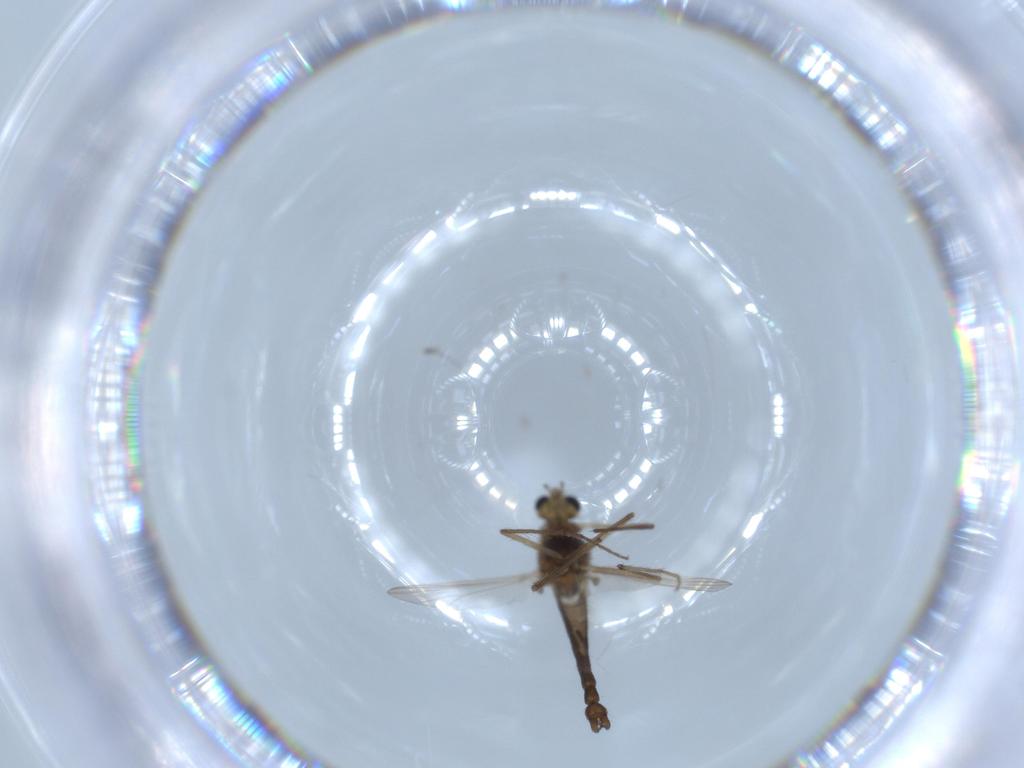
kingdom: Animalia
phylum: Arthropoda
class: Insecta
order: Diptera
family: Chironomidae
